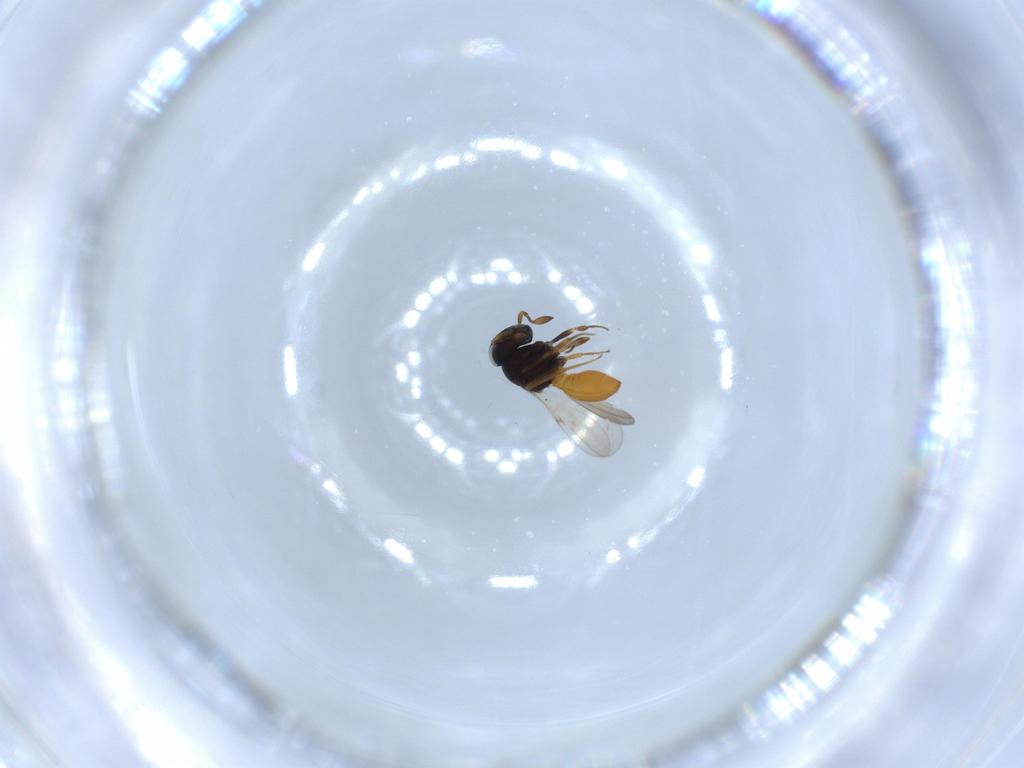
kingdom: Animalia
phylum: Arthropoda
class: Insecta
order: Hymenoptera
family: Scelionidae
